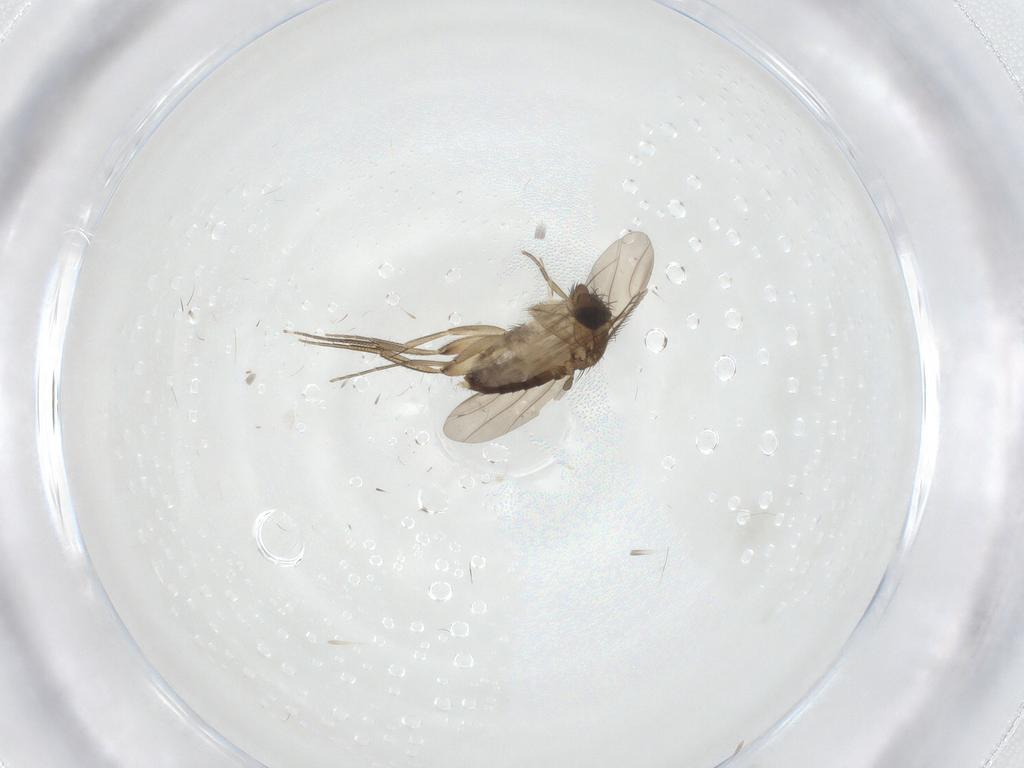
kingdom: Animalia
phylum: Arthropoda
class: Insecta
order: Diptera
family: Phoridae
